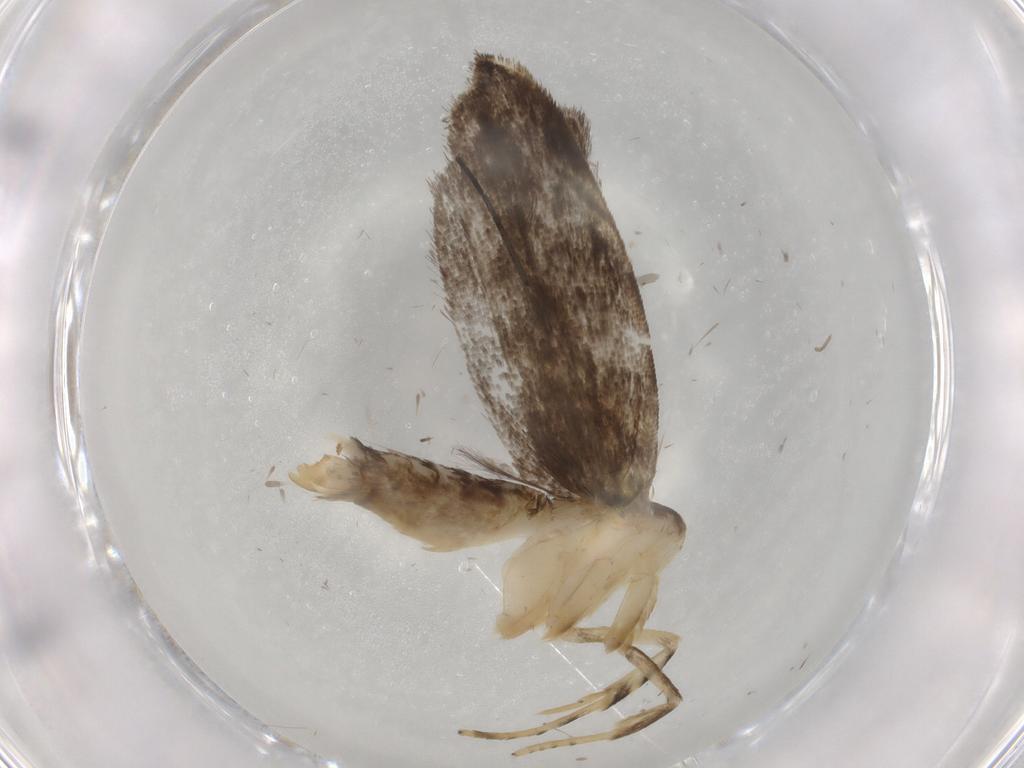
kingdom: Animalia
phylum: Arthropoda
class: Insecta
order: Lepidoptera
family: Gelechiidae
